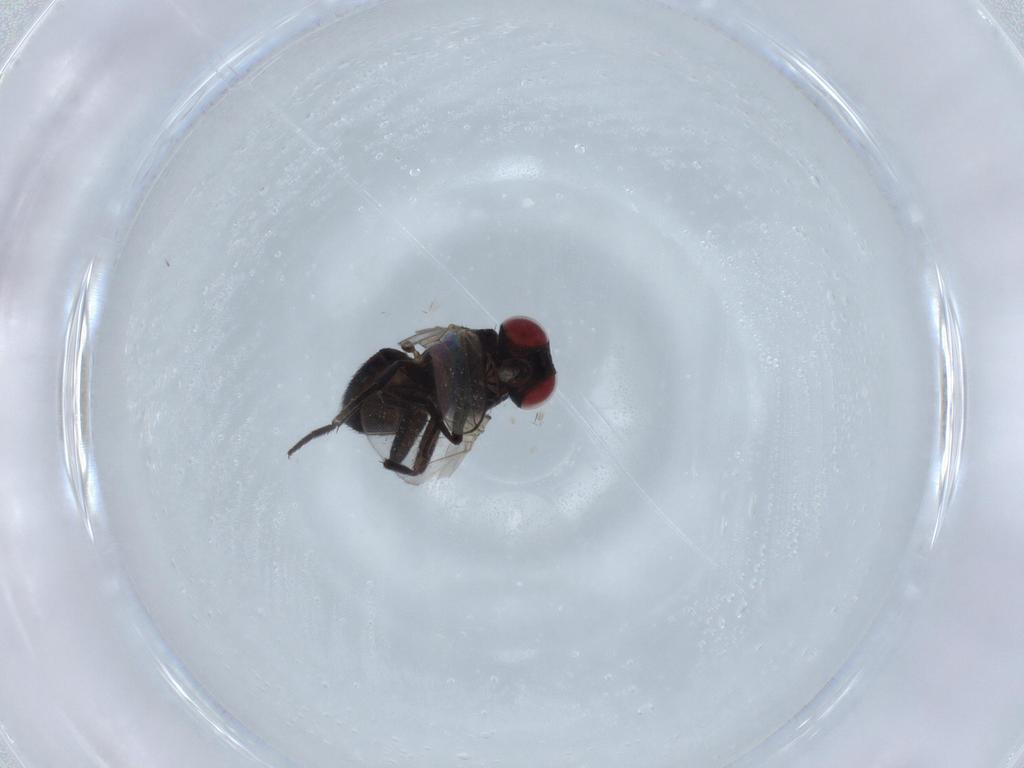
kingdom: Animalia
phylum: Arthropoda
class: Insecta
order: Diptera
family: Agromyzidae
